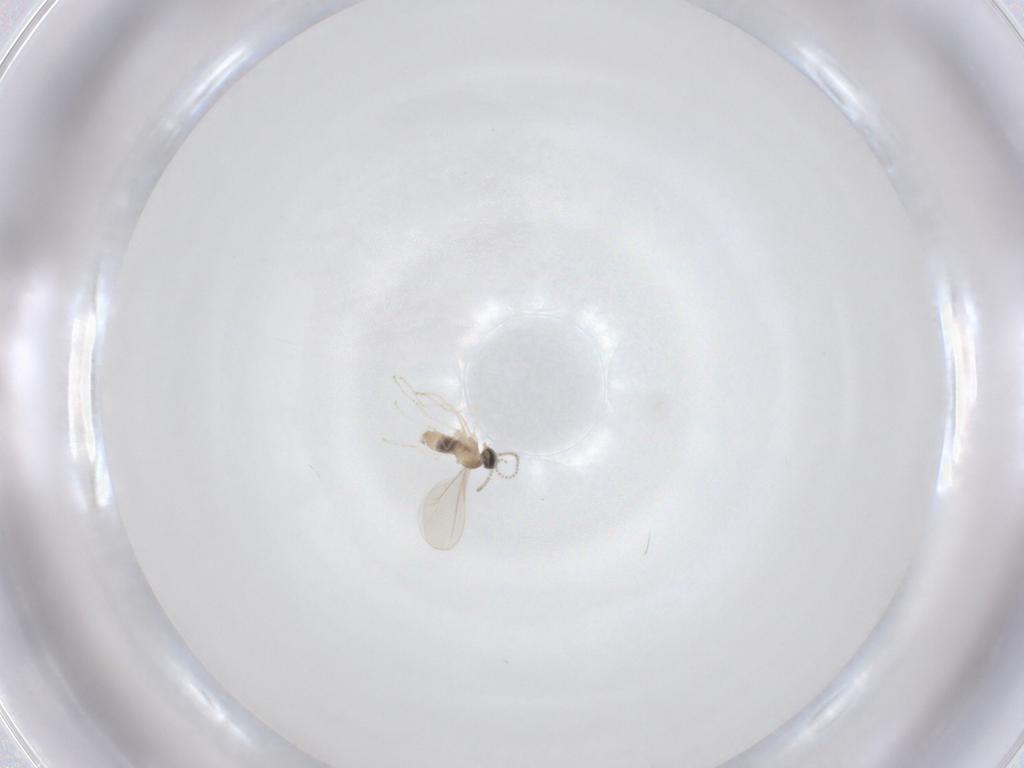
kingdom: Animalia
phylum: Arthropoda
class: Insecta
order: Diptera
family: Cecidomyiidae
